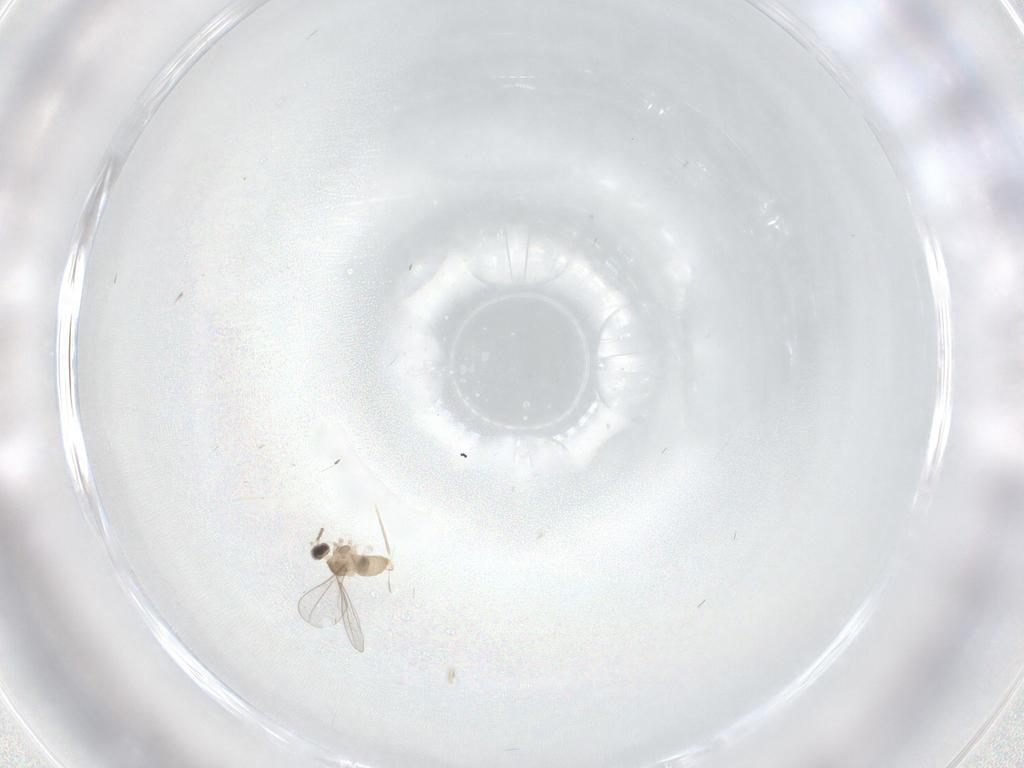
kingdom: Animalia
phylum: Arthropoda
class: Insecta
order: Diptera
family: Cecidomyiidae
